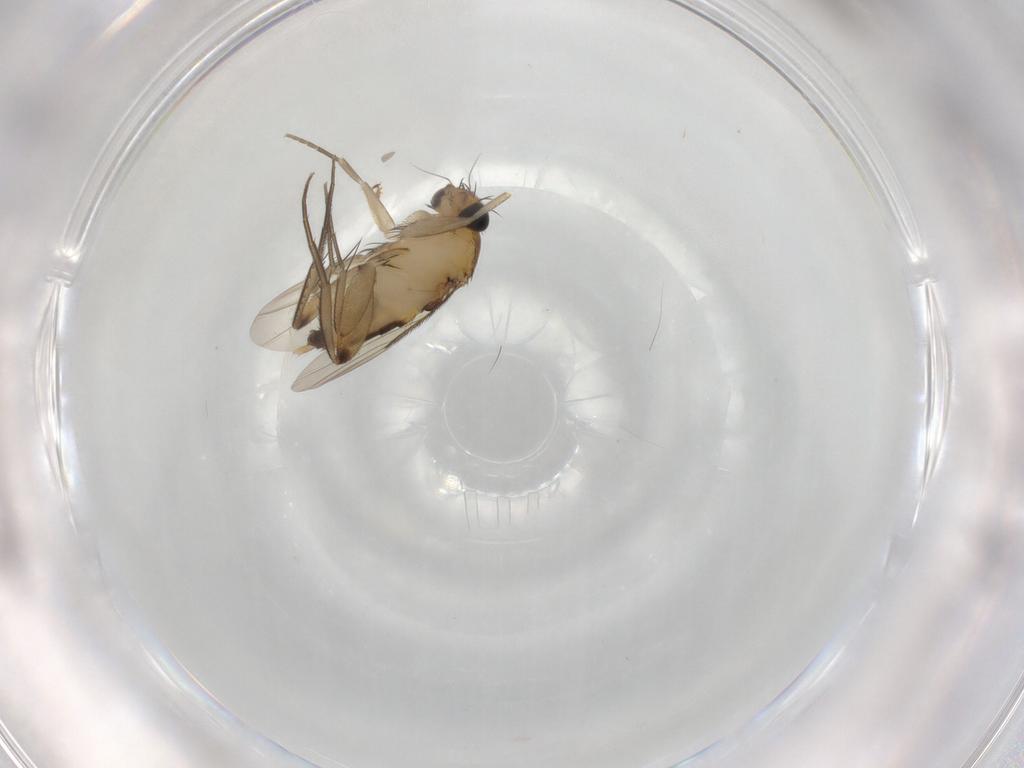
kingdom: Animalia
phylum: Arthropoda
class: Insecta
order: Diptera
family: Phoridae
